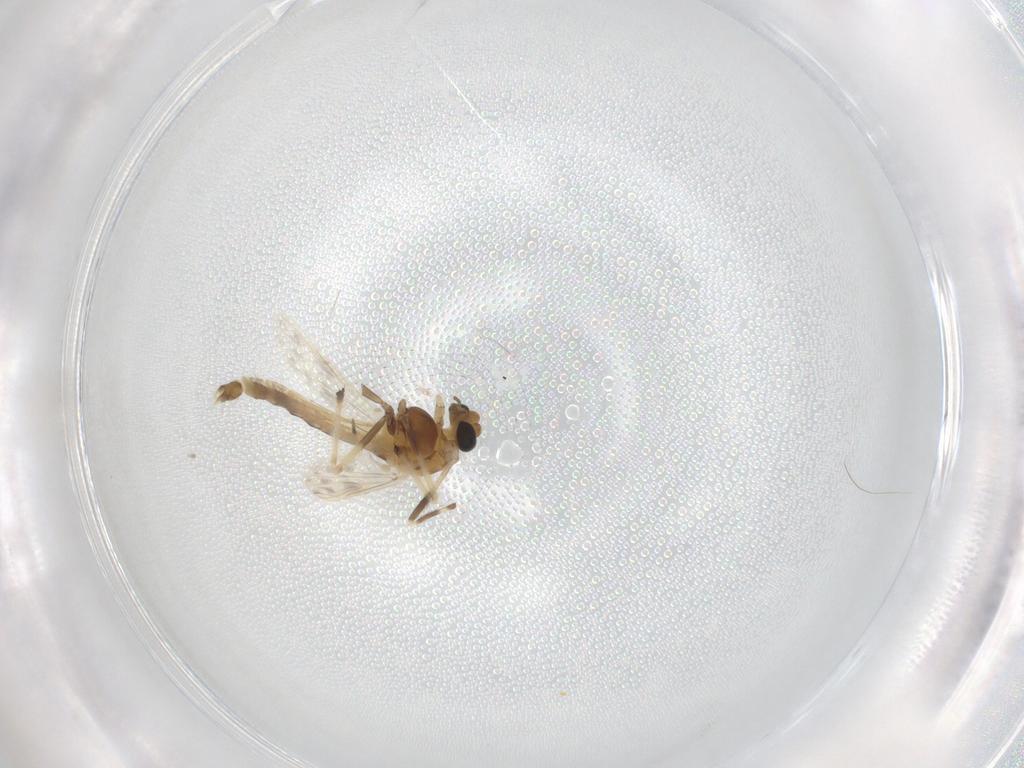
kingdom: Animalia
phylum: Arthropoda
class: Insecta
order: Diptera
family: Chironomidae
